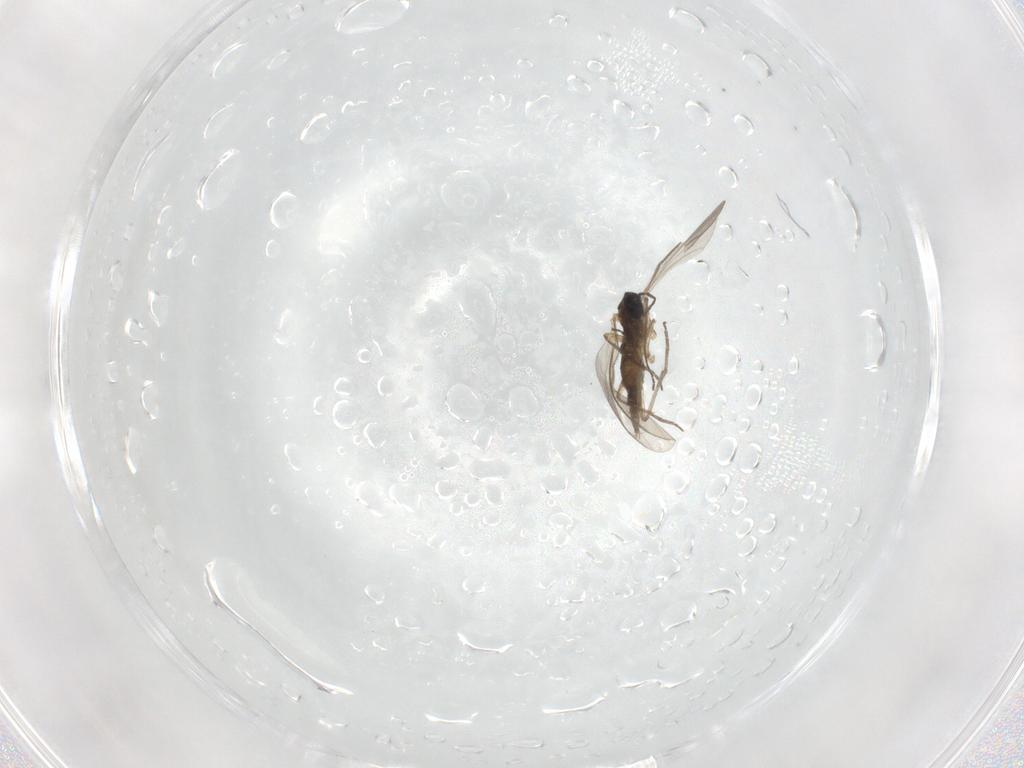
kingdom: Animalia
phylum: Arthropoda
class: Insecta
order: Diptera
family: Sciaridae
